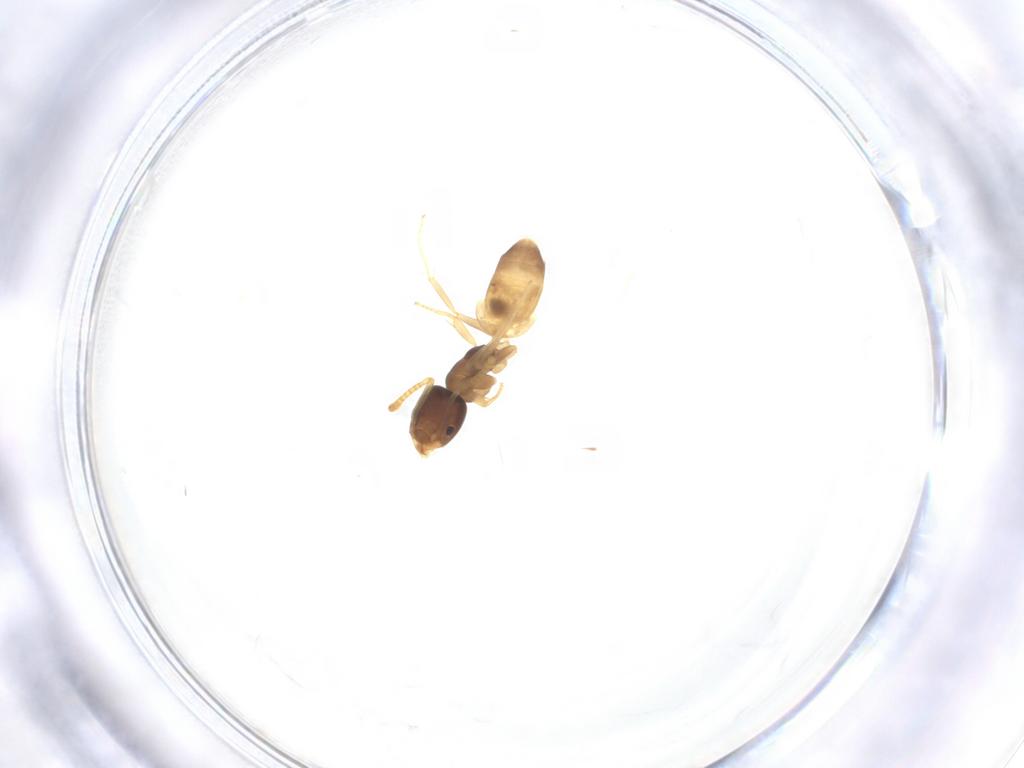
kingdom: Animalia
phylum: Arthropoda
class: Insecta
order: Hymenoptera
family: Formicidae
